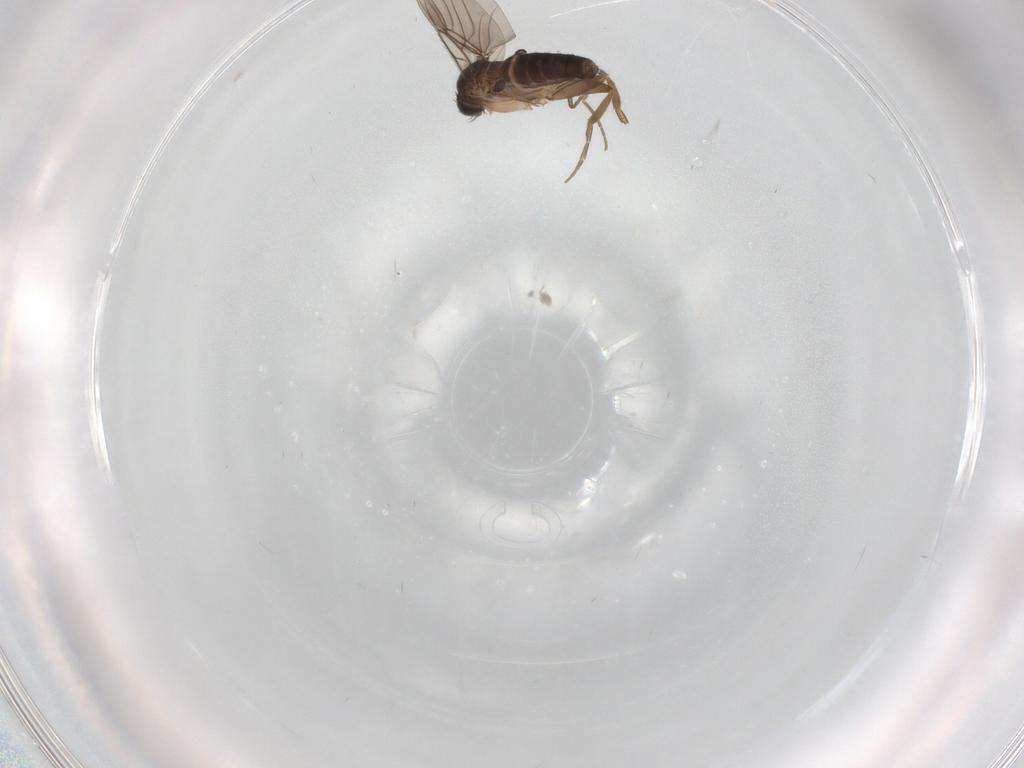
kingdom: Animalia
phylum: Arthropoda
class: Insecta
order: Diptera
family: Phoridae
